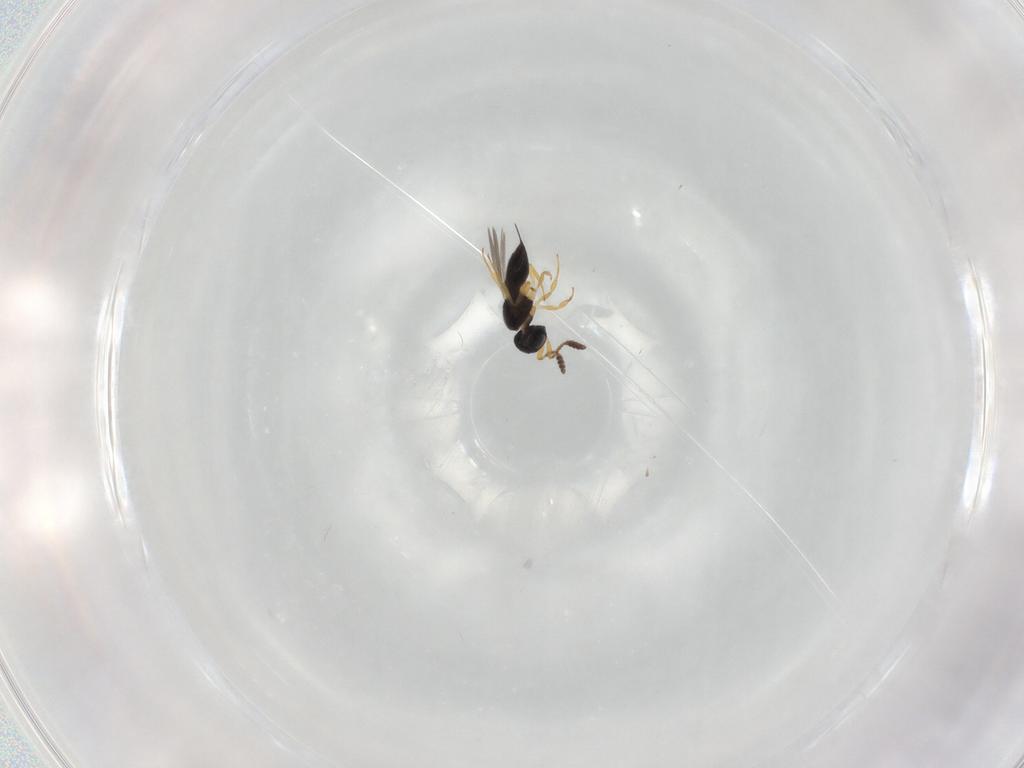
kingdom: Animalia
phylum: Arthropoda
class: Insecta
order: Hymenoptera
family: Scelionidae
